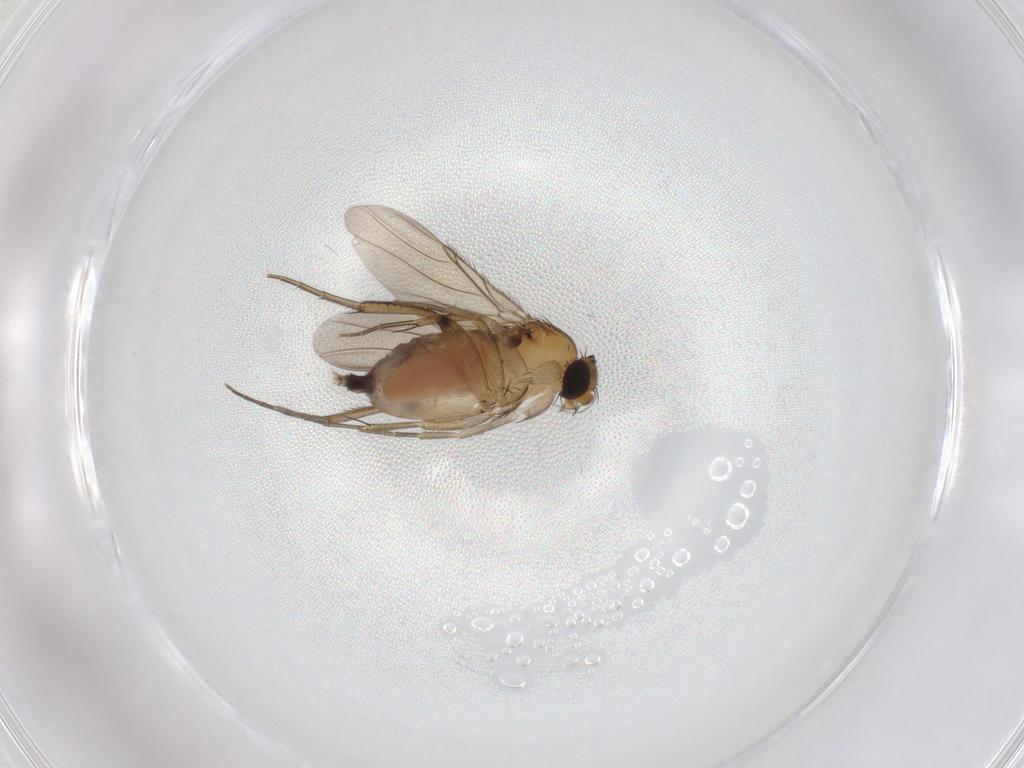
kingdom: Animalia
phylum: Arthropoda
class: Insecta
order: Diptera
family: Phoridae
